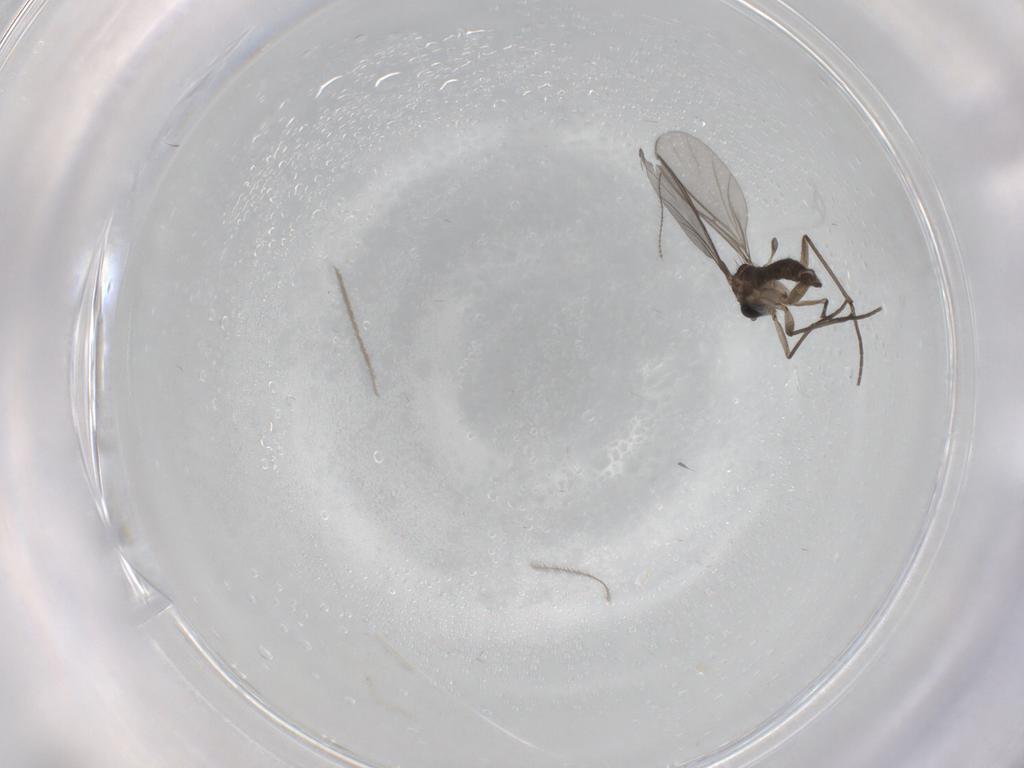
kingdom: Animalia
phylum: Arthropoda
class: Insecta
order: Diptera
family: Sciaridae
